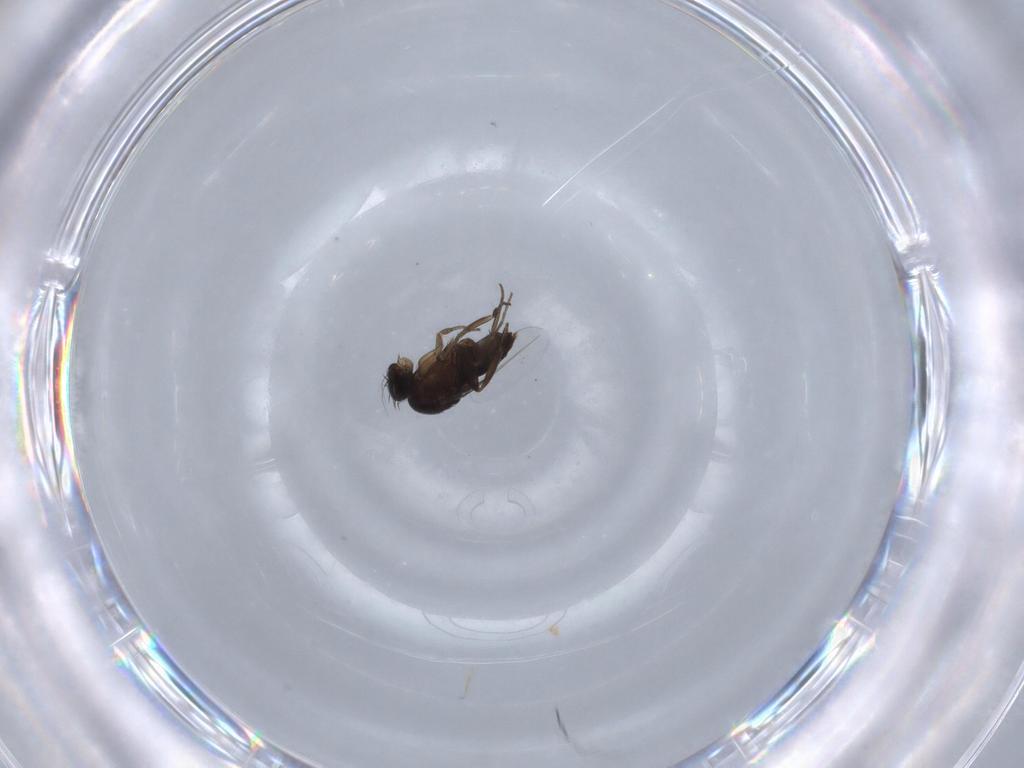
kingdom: Animalia
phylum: Arthropoda
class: Insecta
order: Diptera
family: Phoridae
